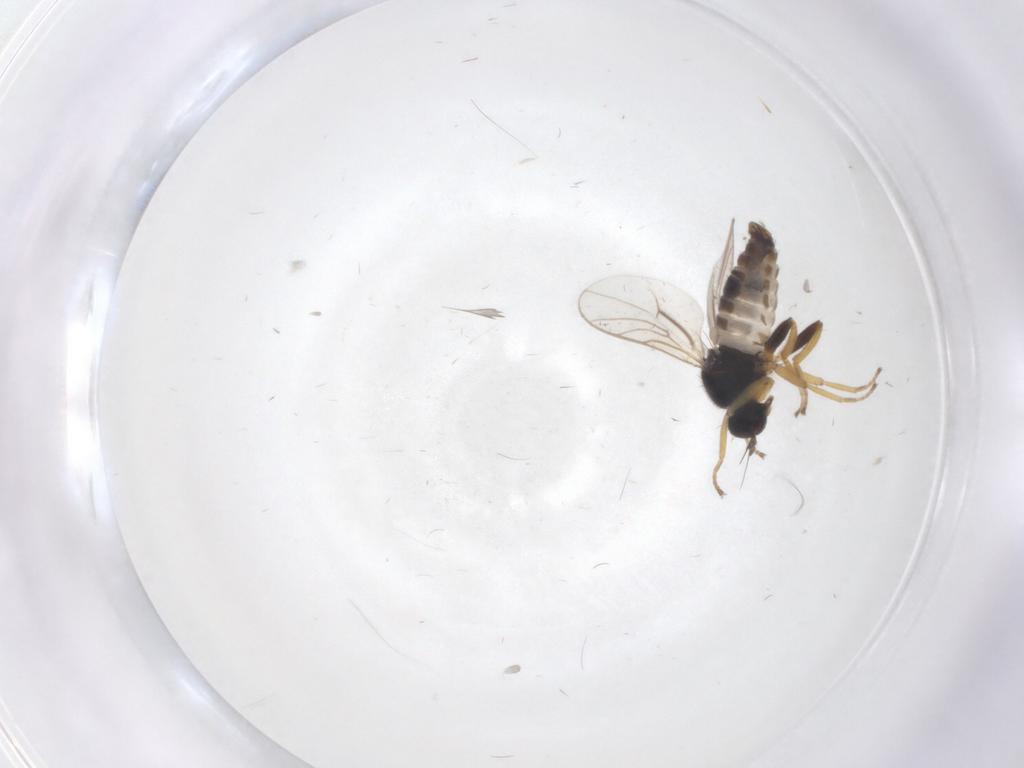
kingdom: Animalia
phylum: Arthropoda
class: Insecta
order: Diptera
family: Hybotidae
